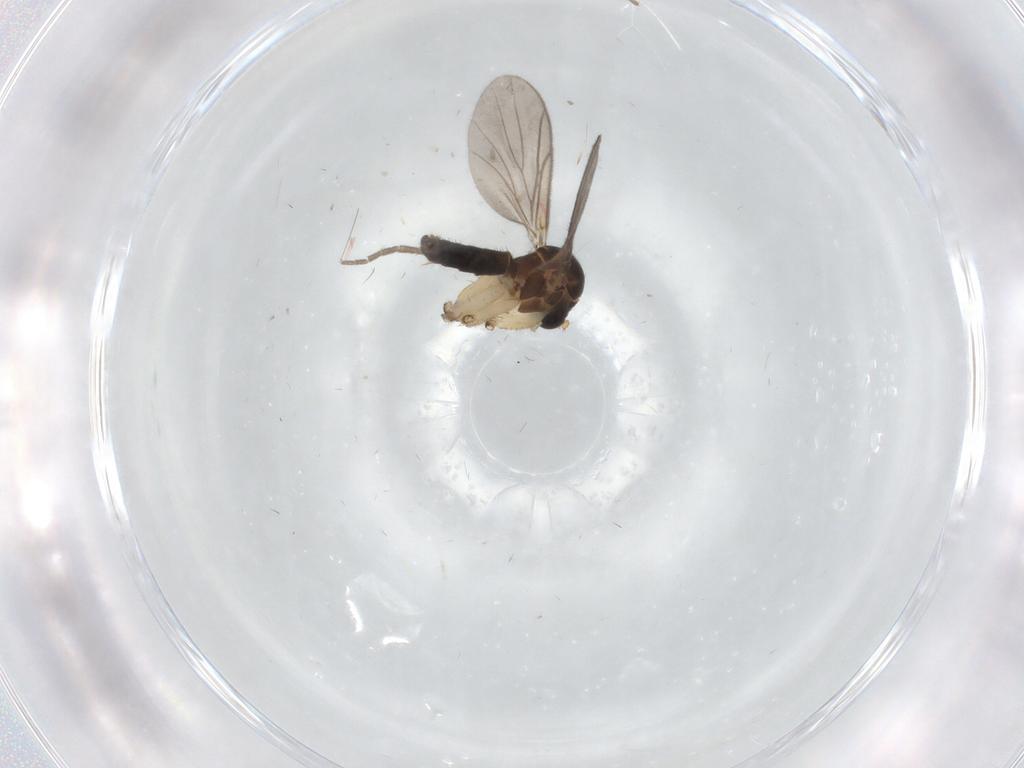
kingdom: Animalia
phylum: Arthropoda
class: Insecta
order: Diptera
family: Mycetophilidae
